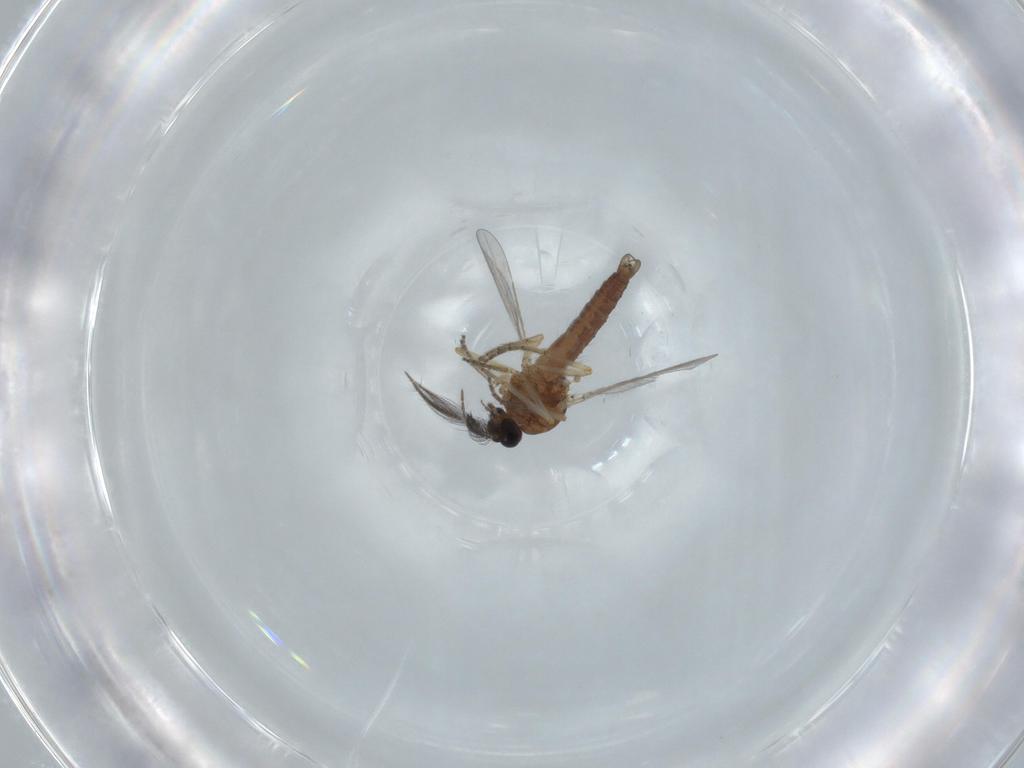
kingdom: Animalia
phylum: Arthropoda
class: Insecta
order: Diptera
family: Ceratopogonidae
